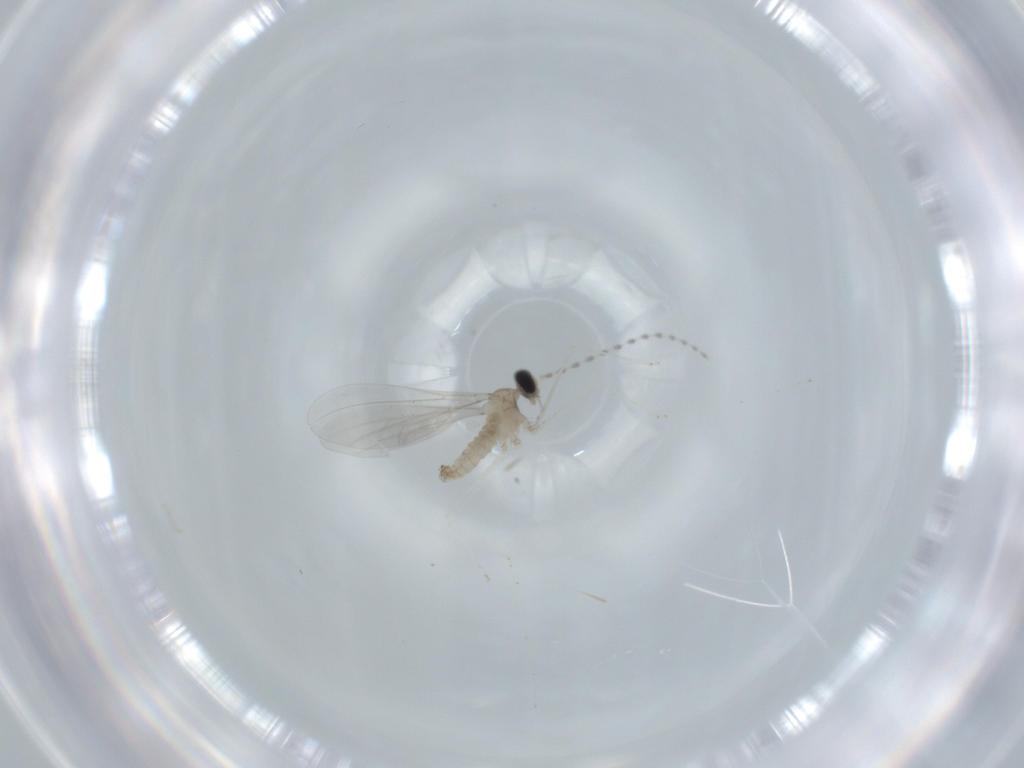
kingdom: Animalia
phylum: Arthropoda
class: Insecta
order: Diptera
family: Cecidomyiidae
